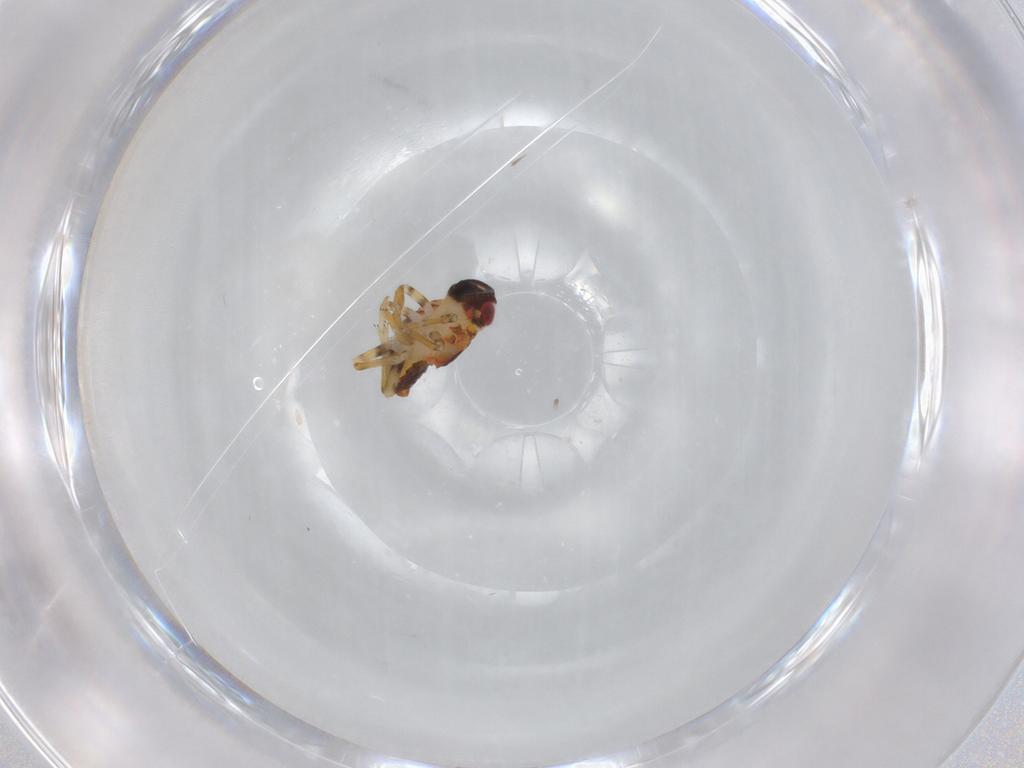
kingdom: Animalia
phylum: Arthropoda
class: Insecta
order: Hemiptera
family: Issidae
